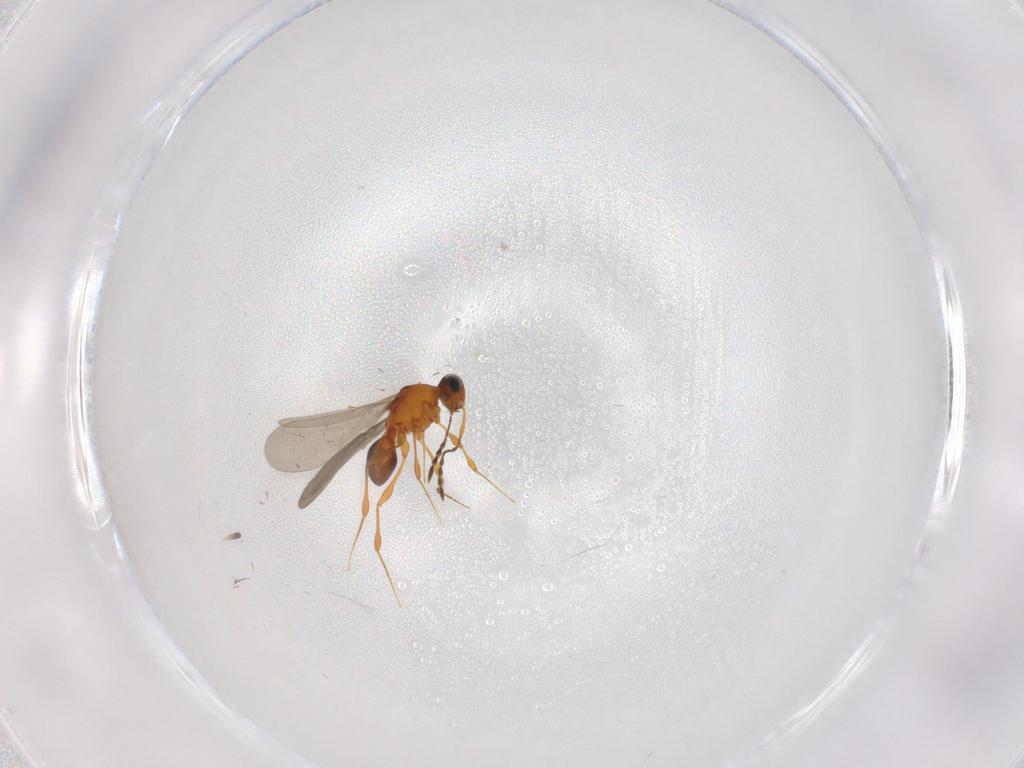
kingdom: Animalia
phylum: Arthropoda
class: Insecta
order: Hymenoptera
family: Platygastridae
